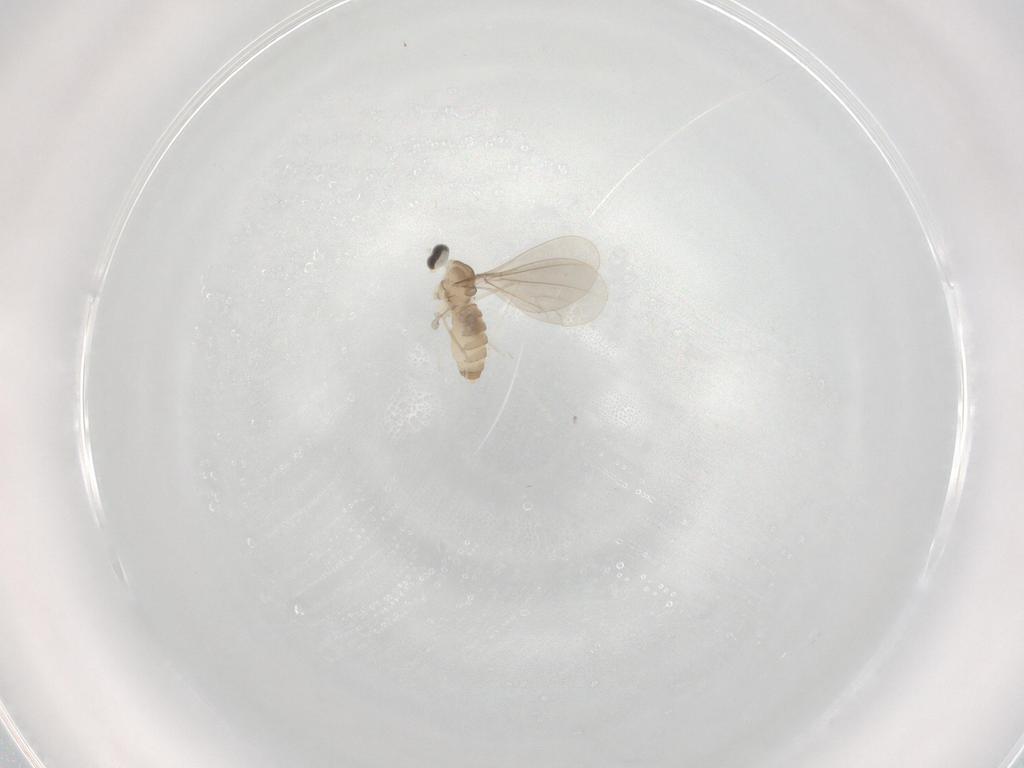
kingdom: Animalia
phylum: Arthropoda
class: Insecta
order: Diptera
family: Cecidomyiidae
